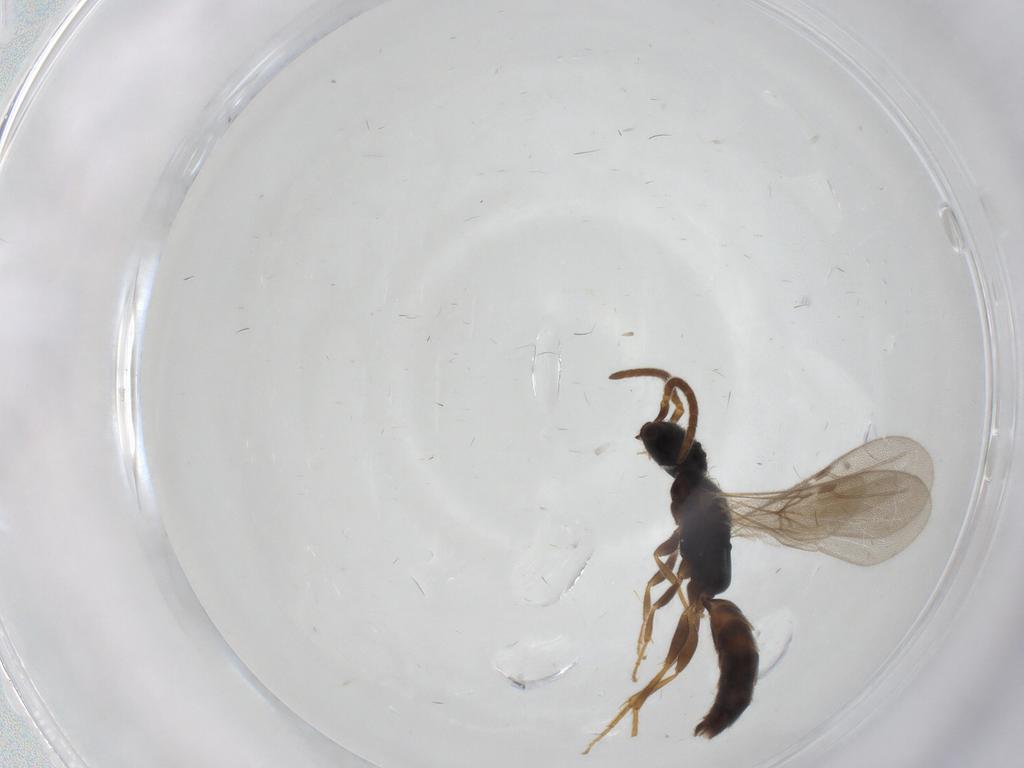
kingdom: Animalia
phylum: Arthropoda
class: Insecta
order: Hymenoptera
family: Bethylidae
